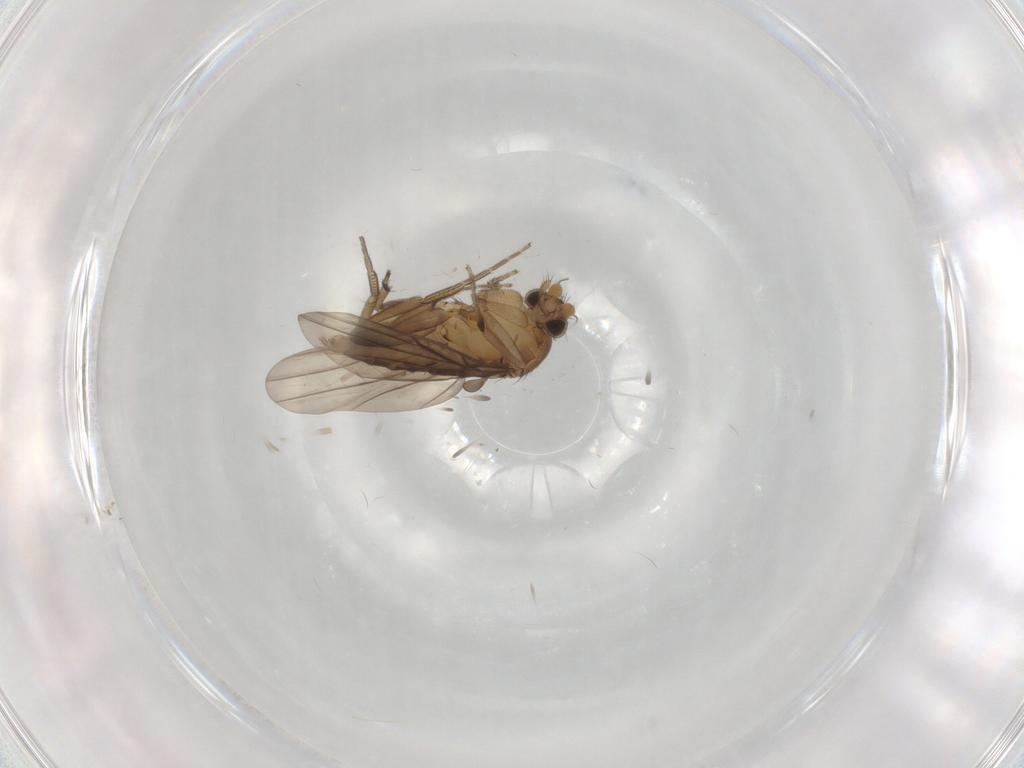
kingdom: Animalia
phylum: Arthropoda
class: Insecta
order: Diptera
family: Phoridae
